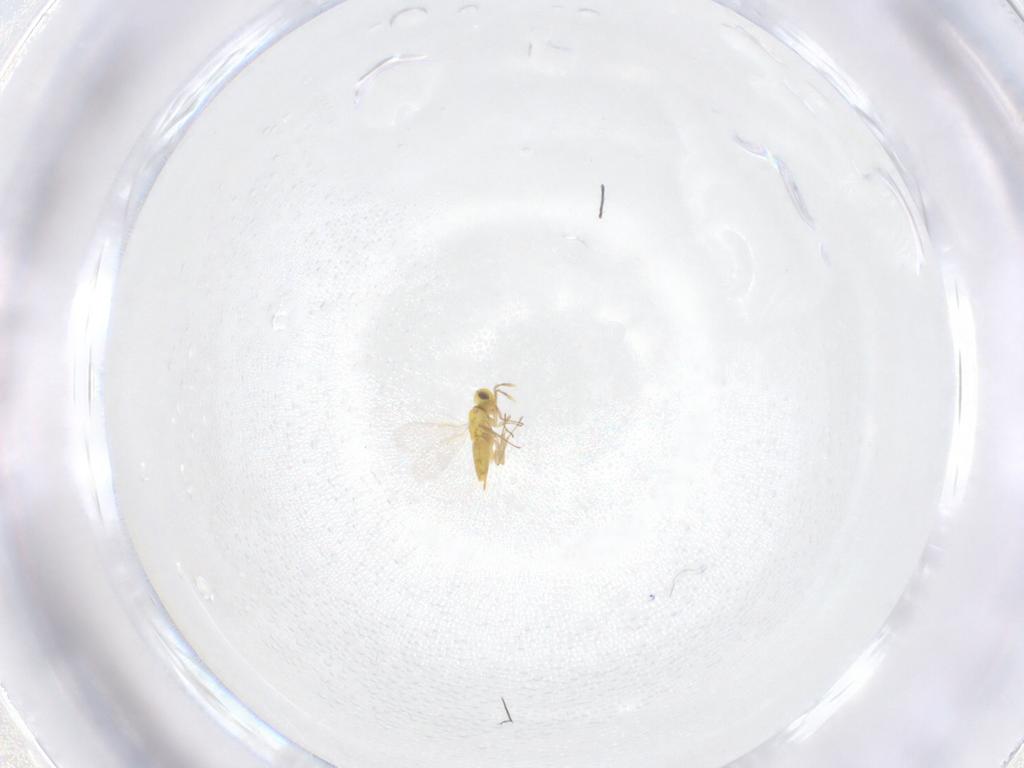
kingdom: Animalia
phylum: Arthropoda
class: Insecta
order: Hymenoptera
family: Aphelinidae
